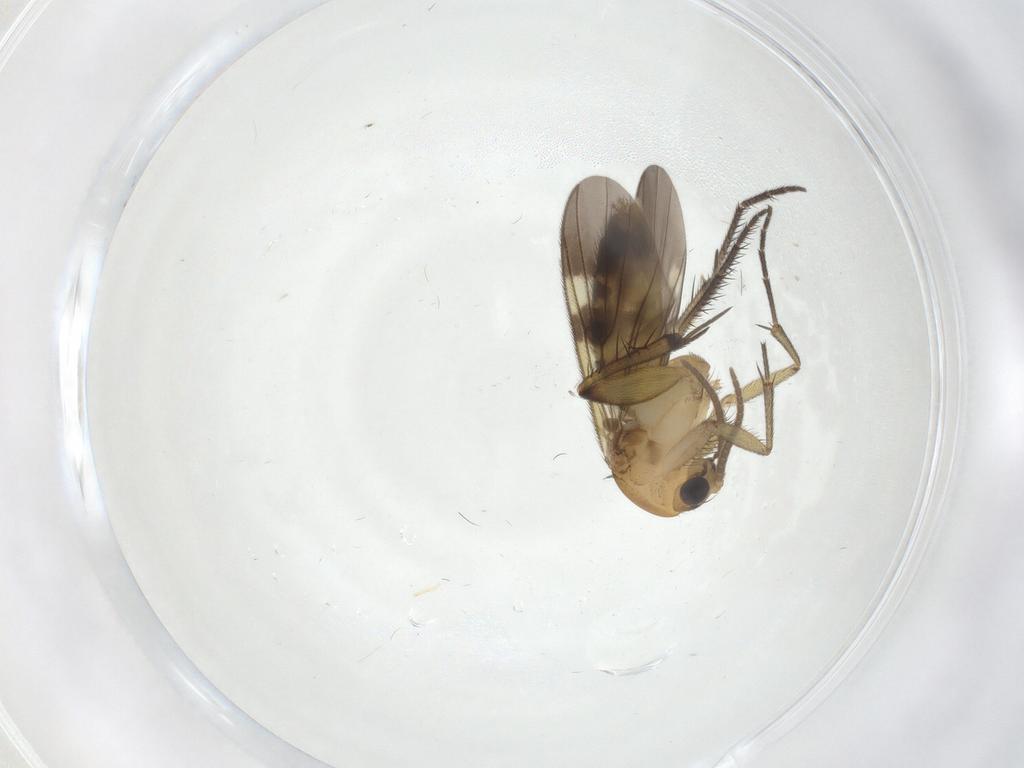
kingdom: Animalia
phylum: Arthropoda
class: Insecta
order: Diptera
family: Mycetophilidae
